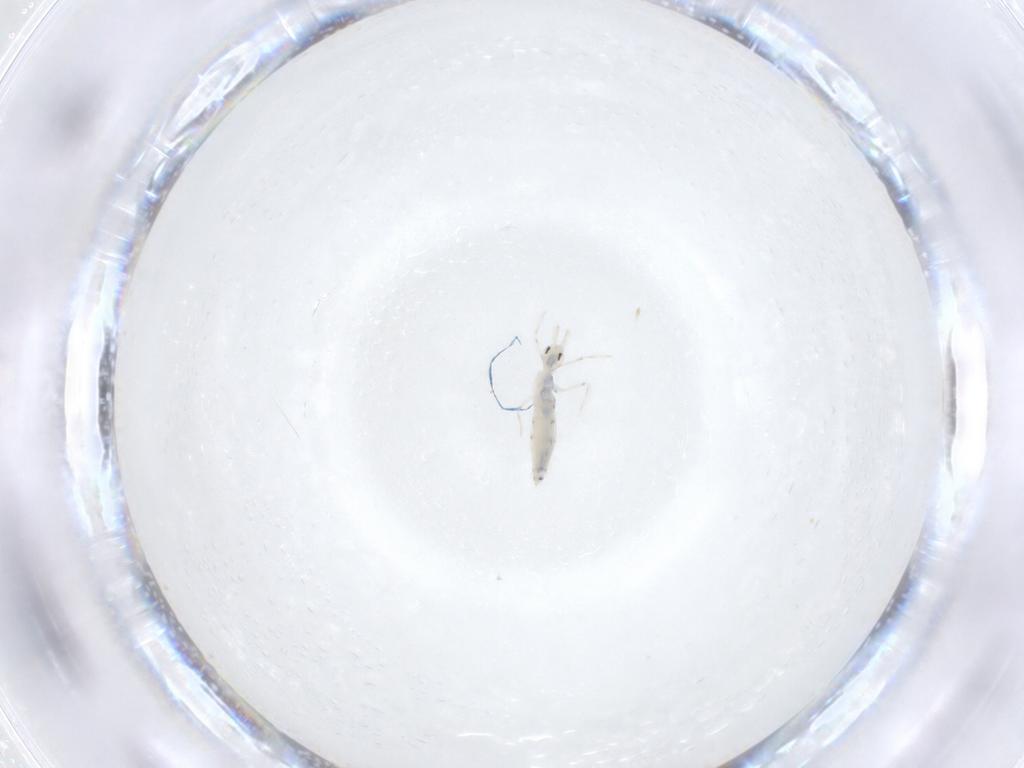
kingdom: Animalia
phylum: Arthropoda
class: Collembola
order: Entomobryomorpha
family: Entomobryidae
